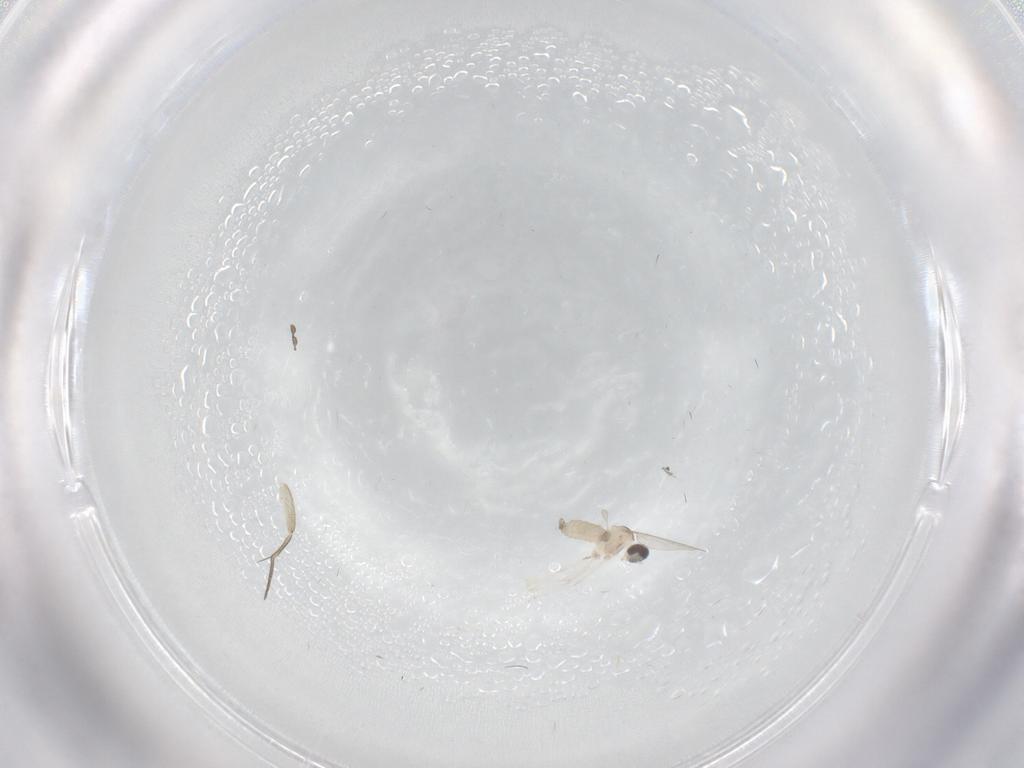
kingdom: Animalia
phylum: Arthropoda
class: Insecta
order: Diptera
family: Phoridae
